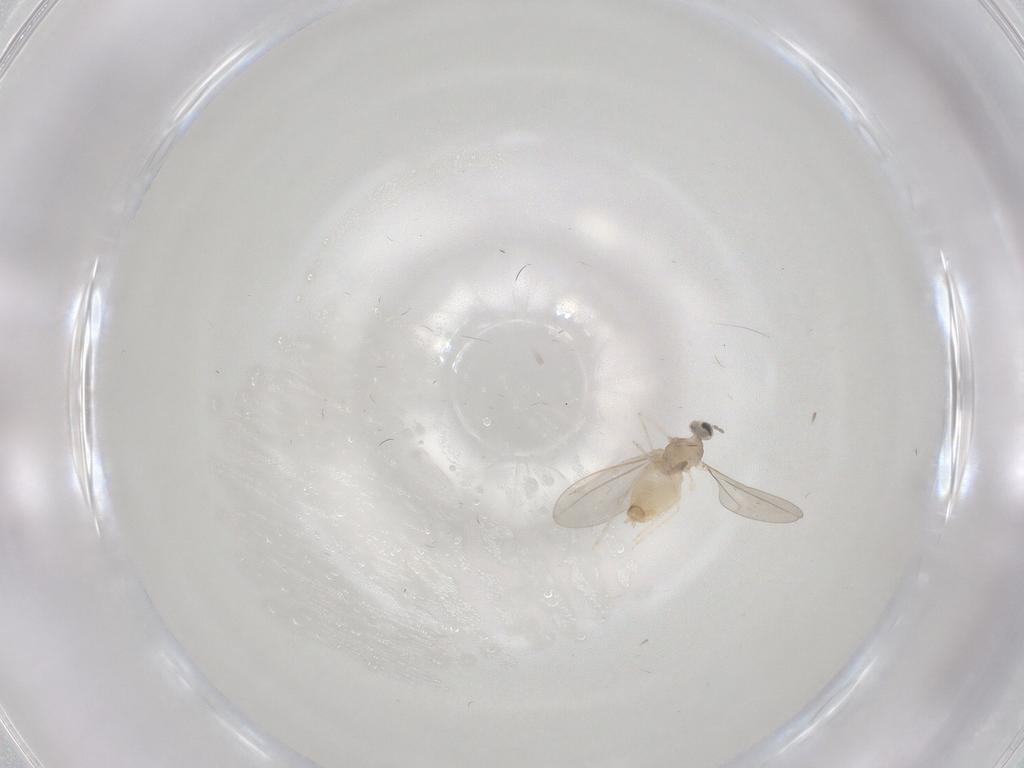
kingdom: Animalia
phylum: Arthropoda
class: Insecta
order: Diptera
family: Cecidomyiidae
